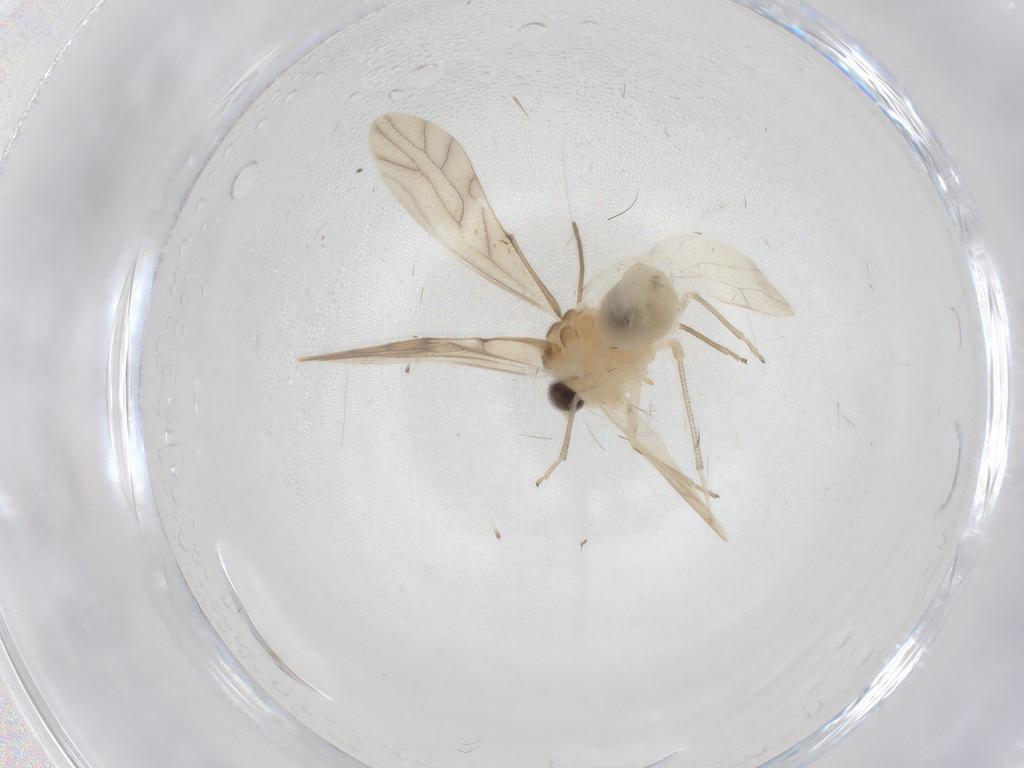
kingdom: Animalia
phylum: Arthropoda
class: Insecta
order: Psocodea
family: Caeciliusidae
